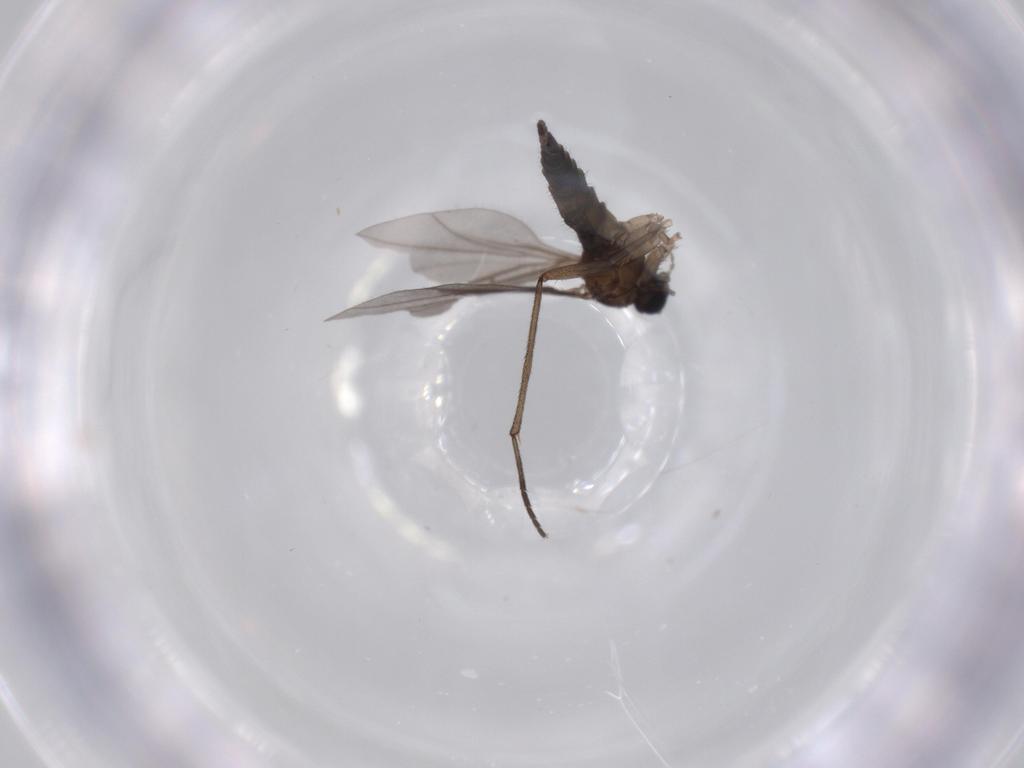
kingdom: Animalia
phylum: Arthropoda
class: Insecta
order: Diptera
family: Sciaridae
